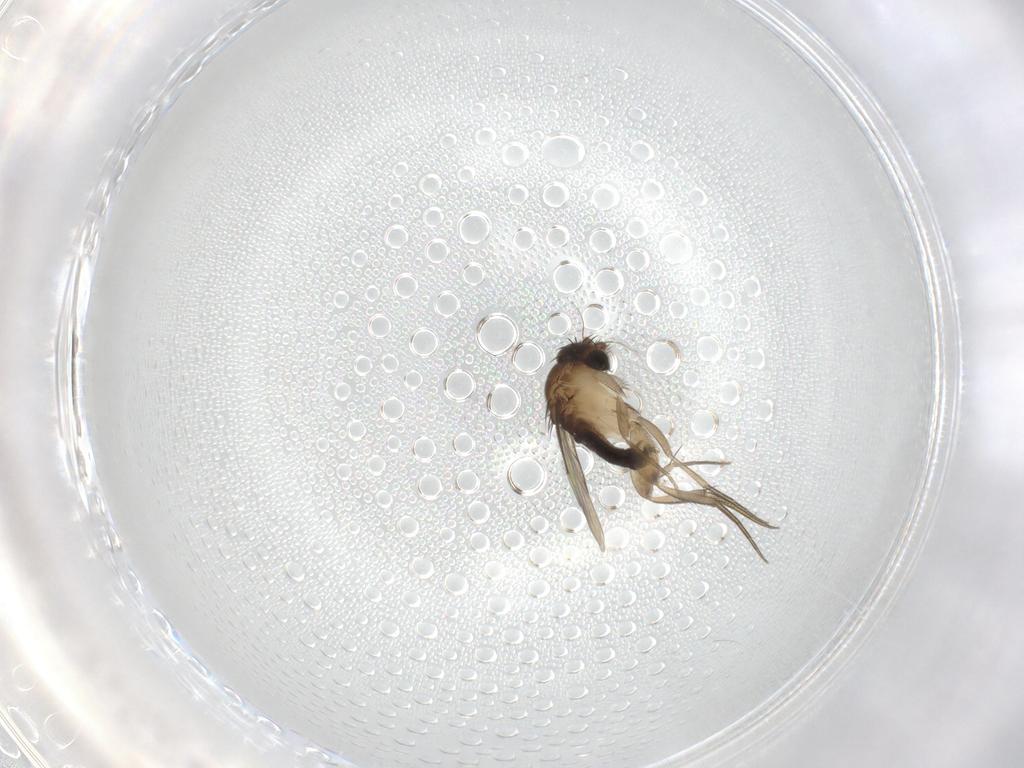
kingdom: Animalia
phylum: Arthropoda
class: Insecta
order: Diptera
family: Phoridae
